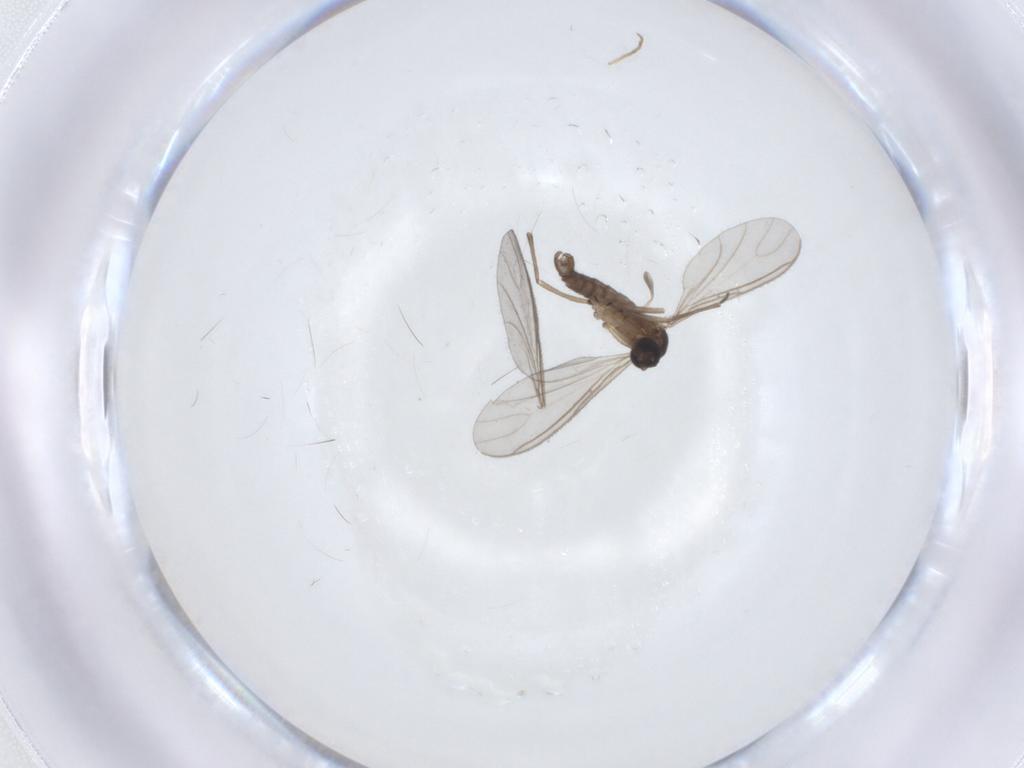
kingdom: Animalia
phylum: Arthropoda
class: Insecta
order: Diptera
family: Sciaridae
